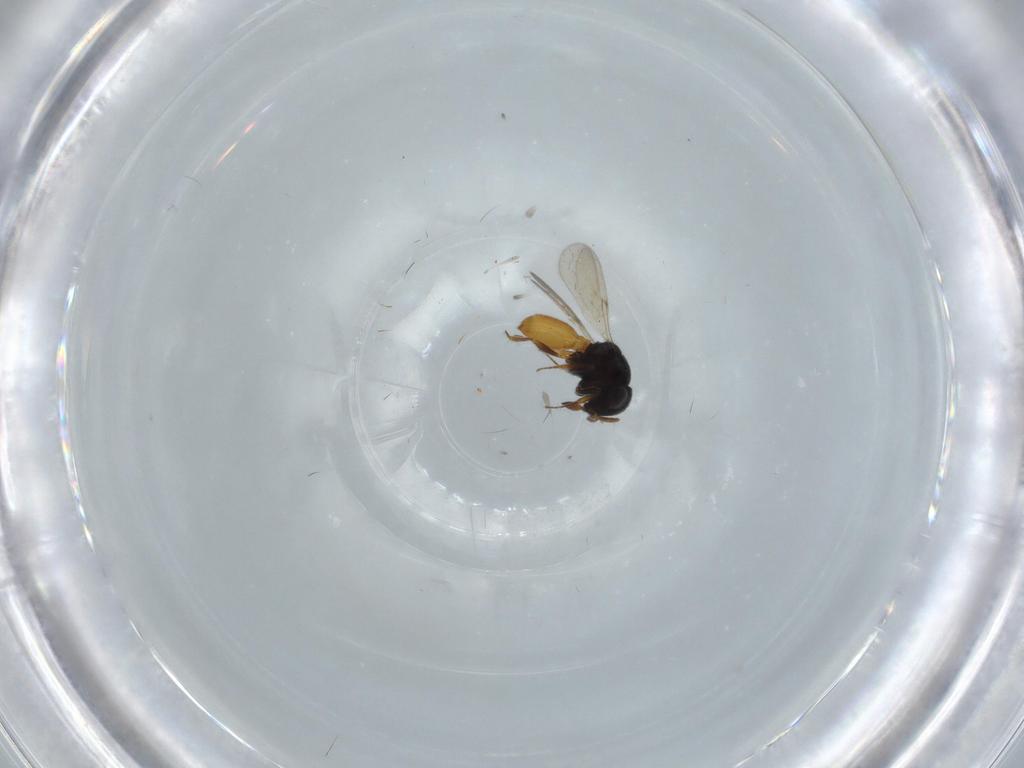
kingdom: Animalia
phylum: Arthropoda
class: Insecta
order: Hymenoptera
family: Scelionidae
